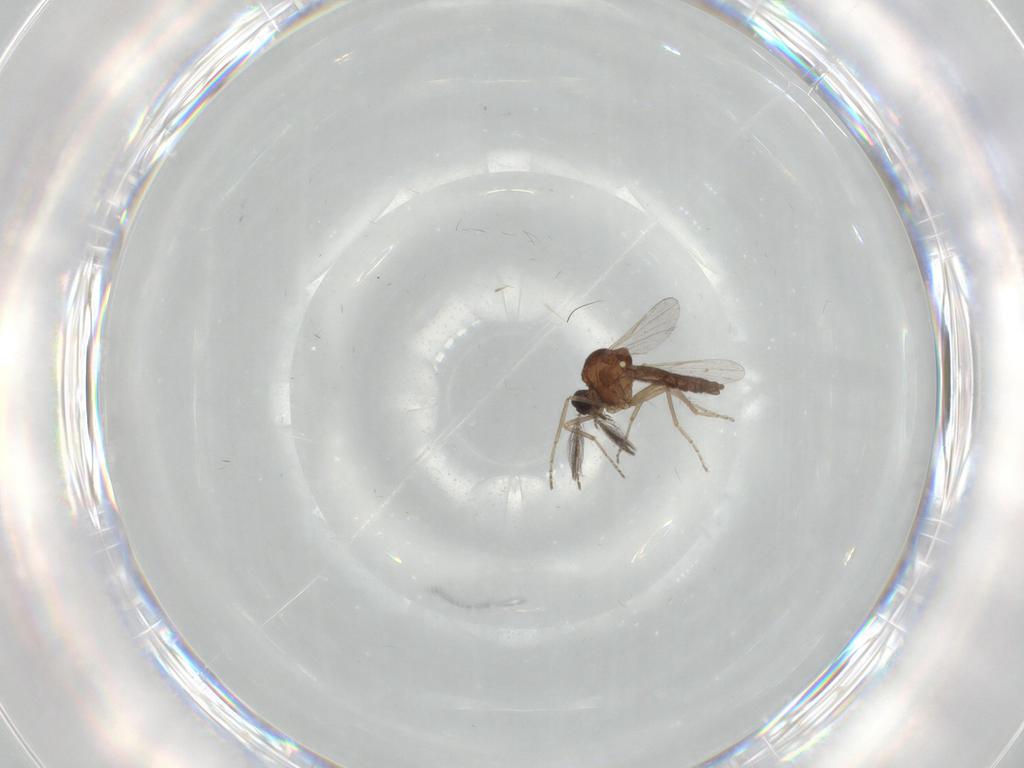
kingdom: Animalia
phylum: Arthropoda
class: Insecta
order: Diptera
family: Ceratopogonidae
